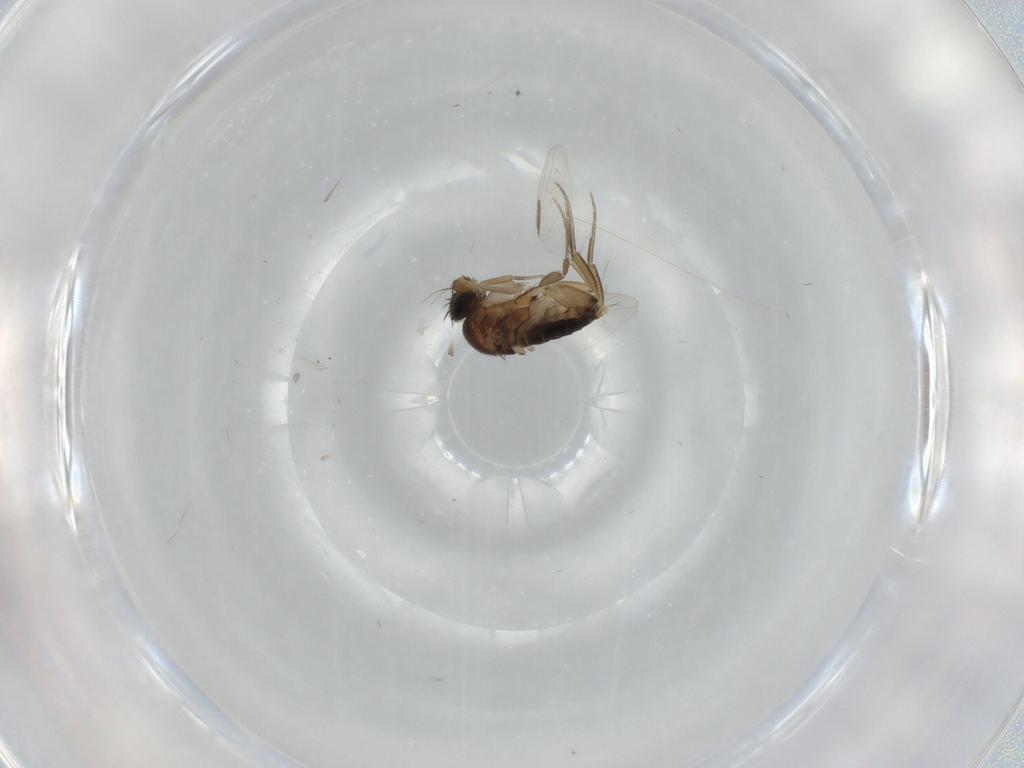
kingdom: Animalia
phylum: Arthropoda
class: Insecta
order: Diptera
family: Phoridae
